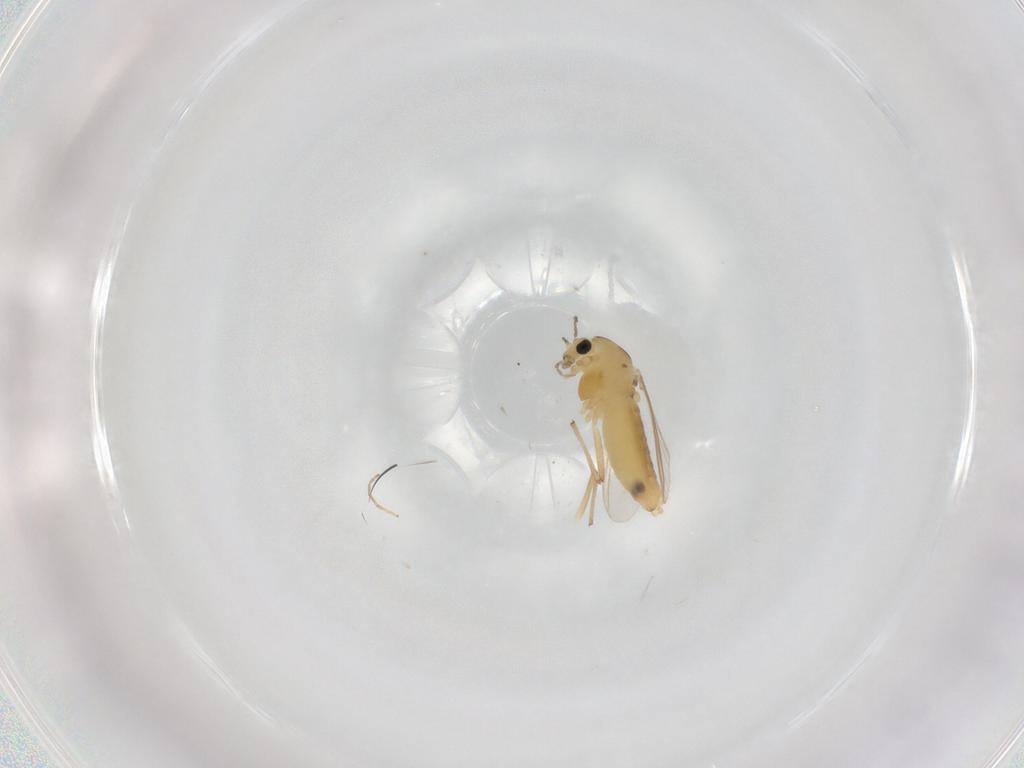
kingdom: Animalia
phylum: Arthropoda
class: Insecta
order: Diptera
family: Chironomidae
